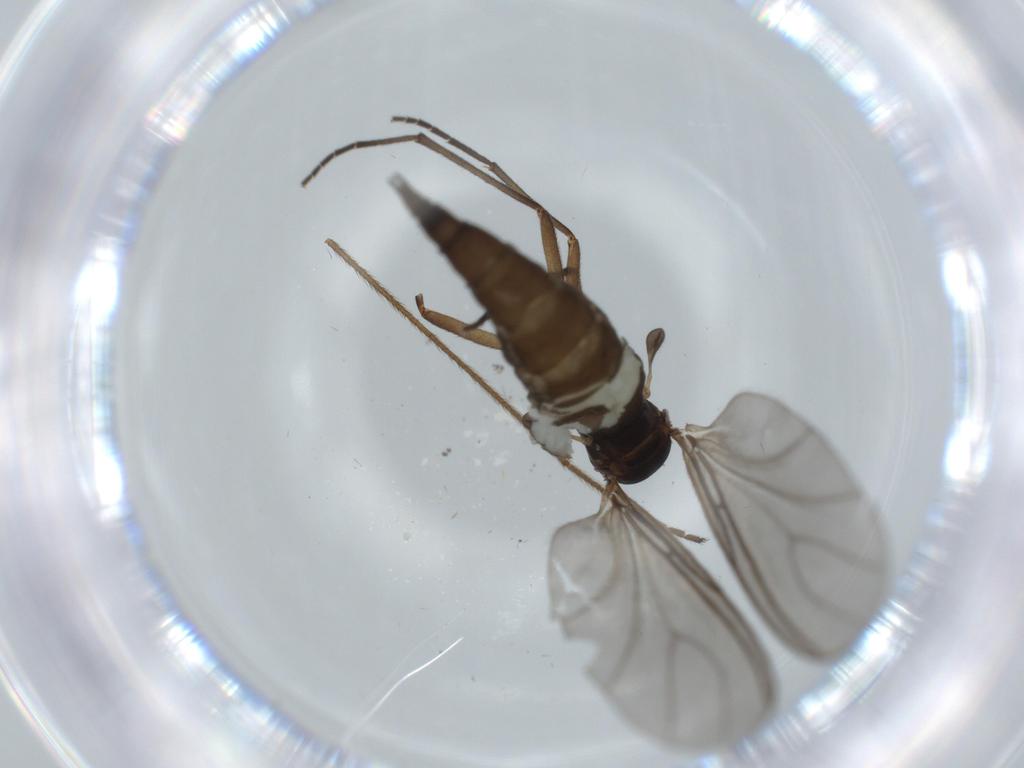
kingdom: Animalia
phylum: Arthropoda
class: Insecta
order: Diptera
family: Sciaridae
